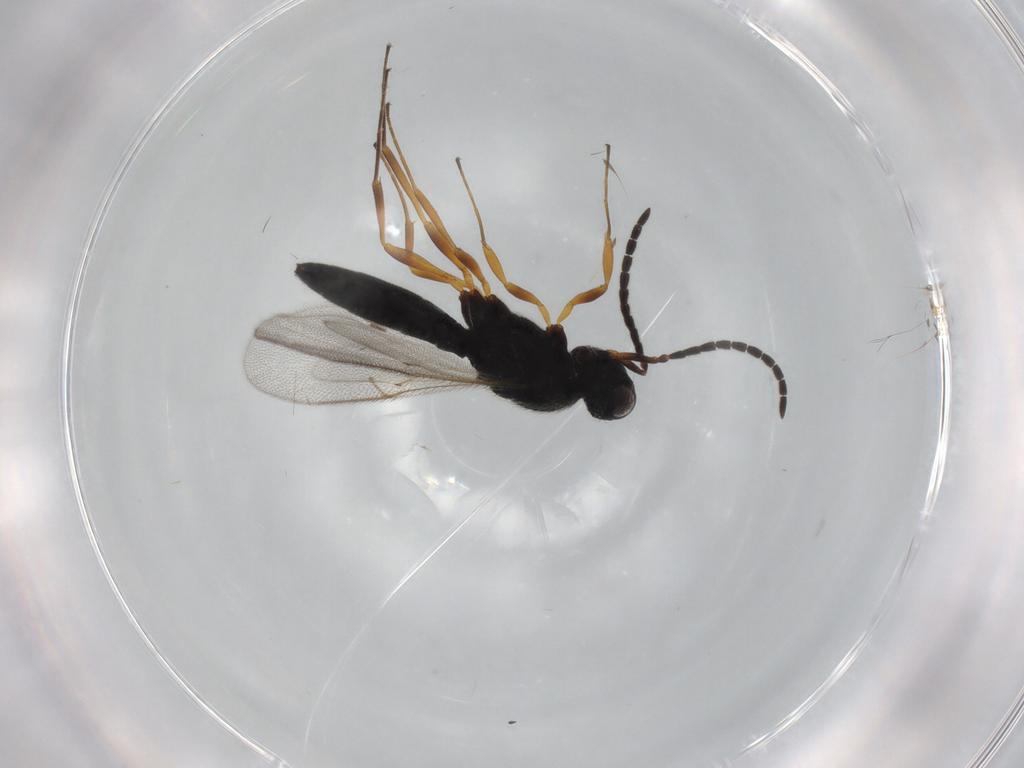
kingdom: Animalia
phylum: Arthropoda
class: Insecta
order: Hymenoptera
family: Scelionidae
